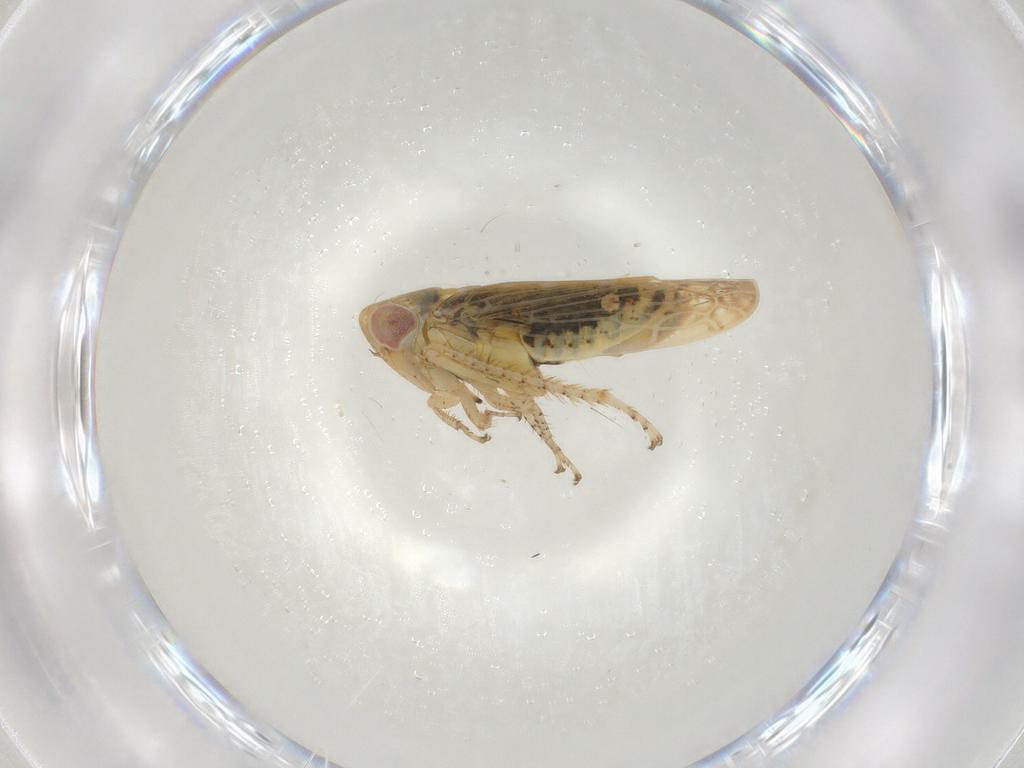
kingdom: Animalia
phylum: Arthropoda
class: Insecta
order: Hemiptera
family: Cicadellidae
